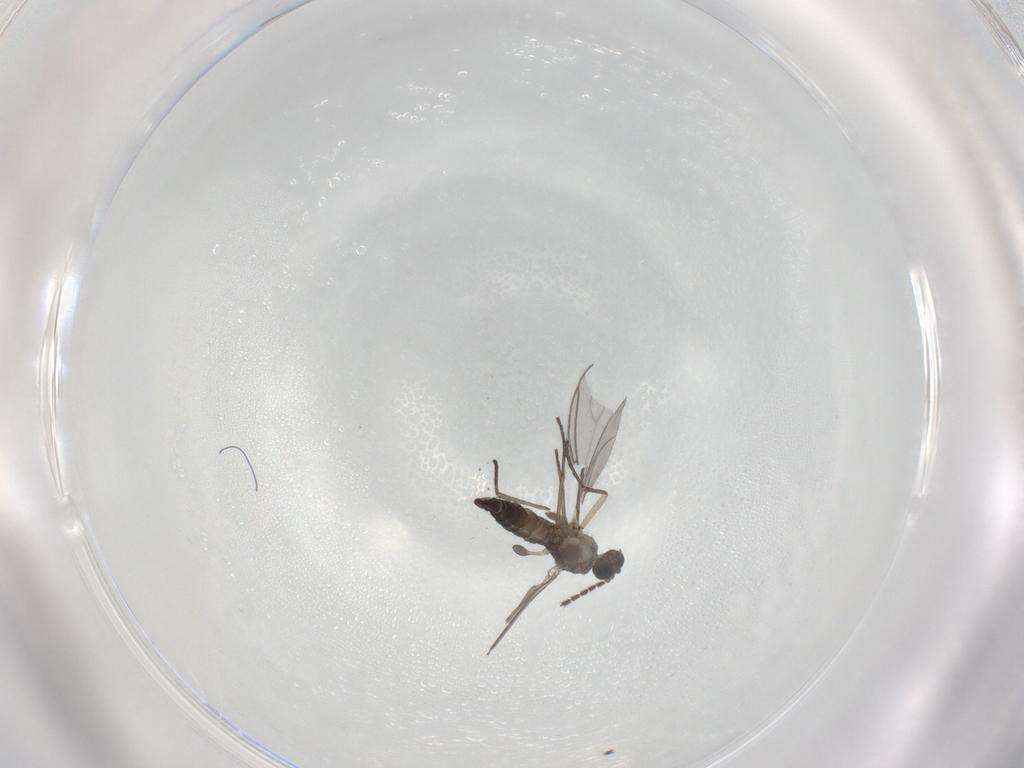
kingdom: Animalia
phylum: Arthropoda
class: Insecta
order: Diptera
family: Sciaridae
